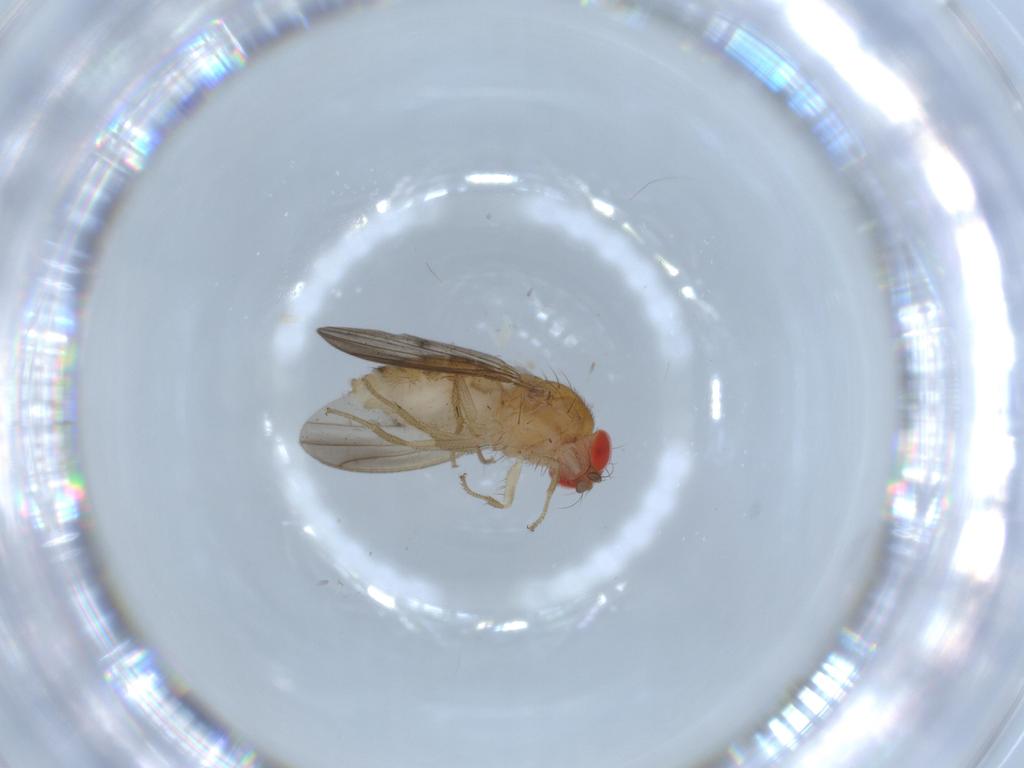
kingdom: Animalia
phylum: Arthropoda
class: Insecta
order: Diptera
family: Drosophilidae
